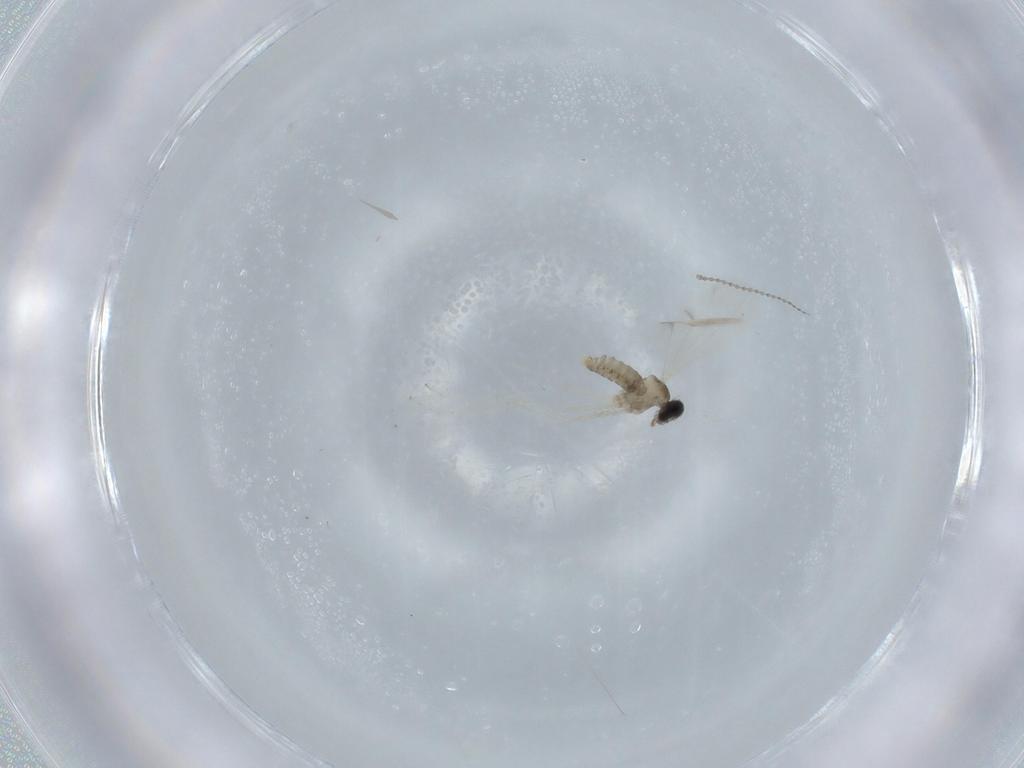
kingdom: Animalia
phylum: Arthropoda
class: Insecta
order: Diptera
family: Cecidomyiidae
